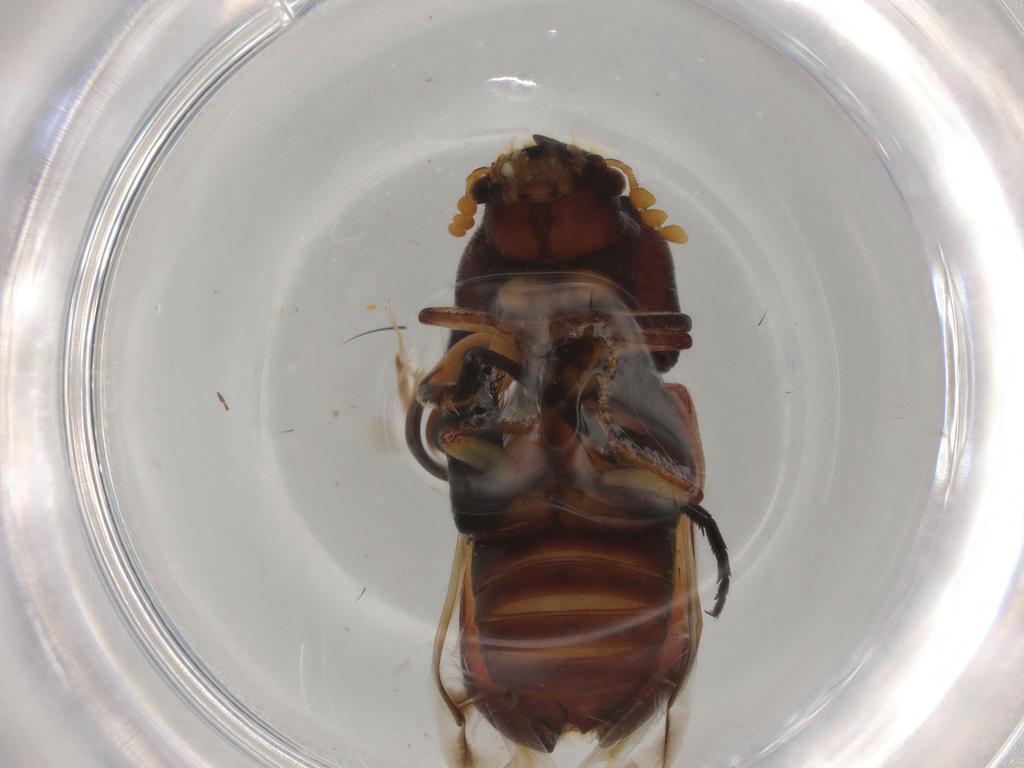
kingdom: Animalia
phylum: Arthropoda
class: Insecta
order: Coleoptera
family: Bostrichidae
